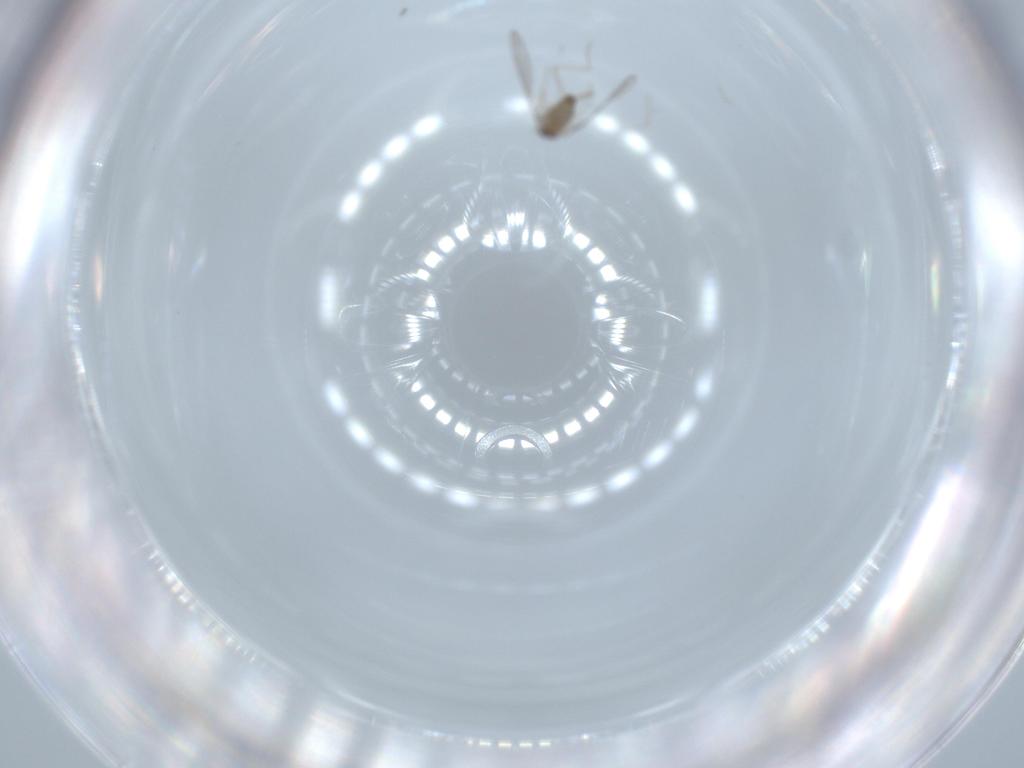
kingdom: Animalia
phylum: Arthropoda
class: Insecta
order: Diptera
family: Cecidomyiidae
